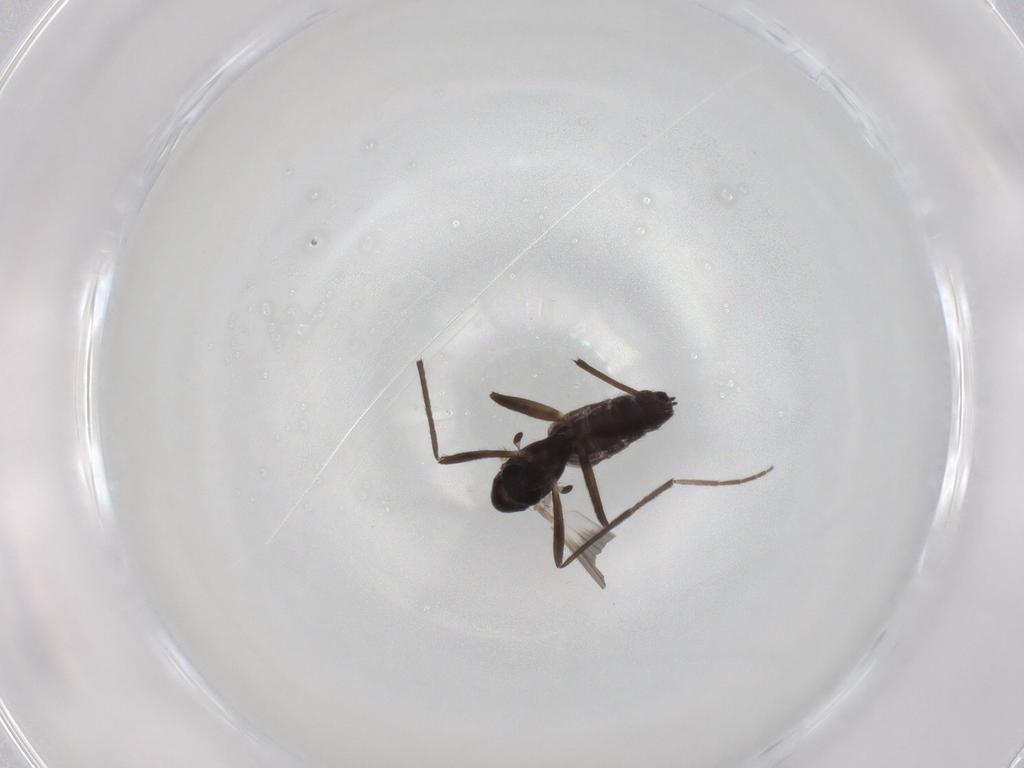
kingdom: Animalia
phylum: Arthropoda
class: Insecta
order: Diptera
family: Chironomidae
